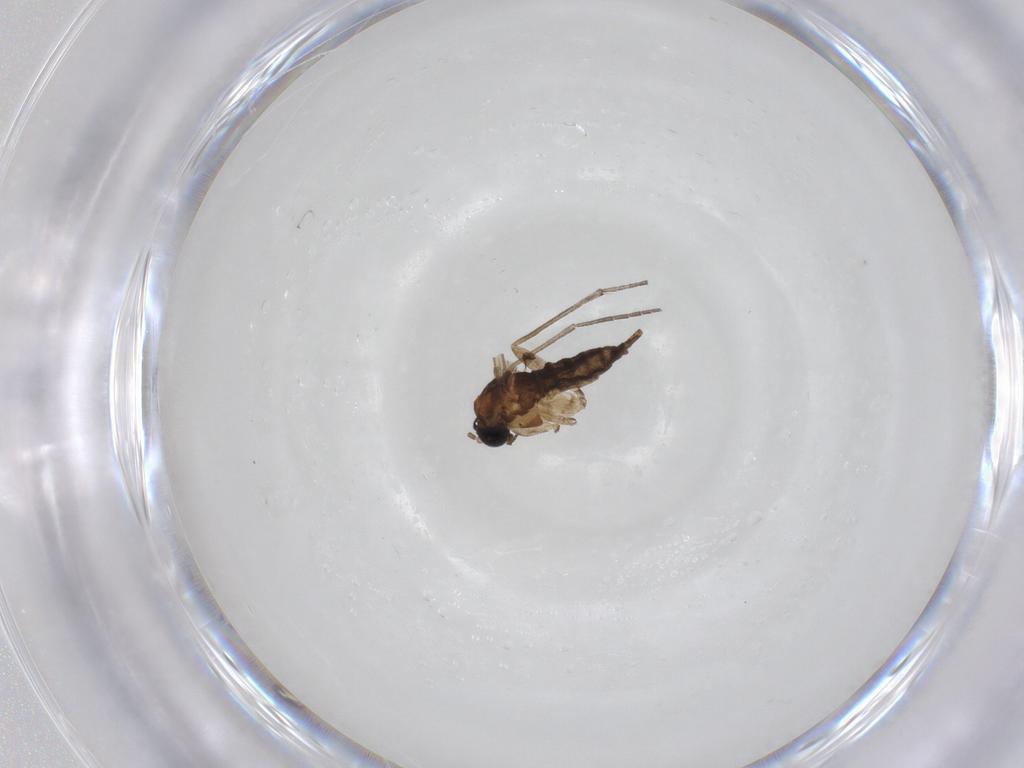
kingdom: Animalia
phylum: Arthropoda
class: Insecta
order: Diptera
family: Sciaridae
